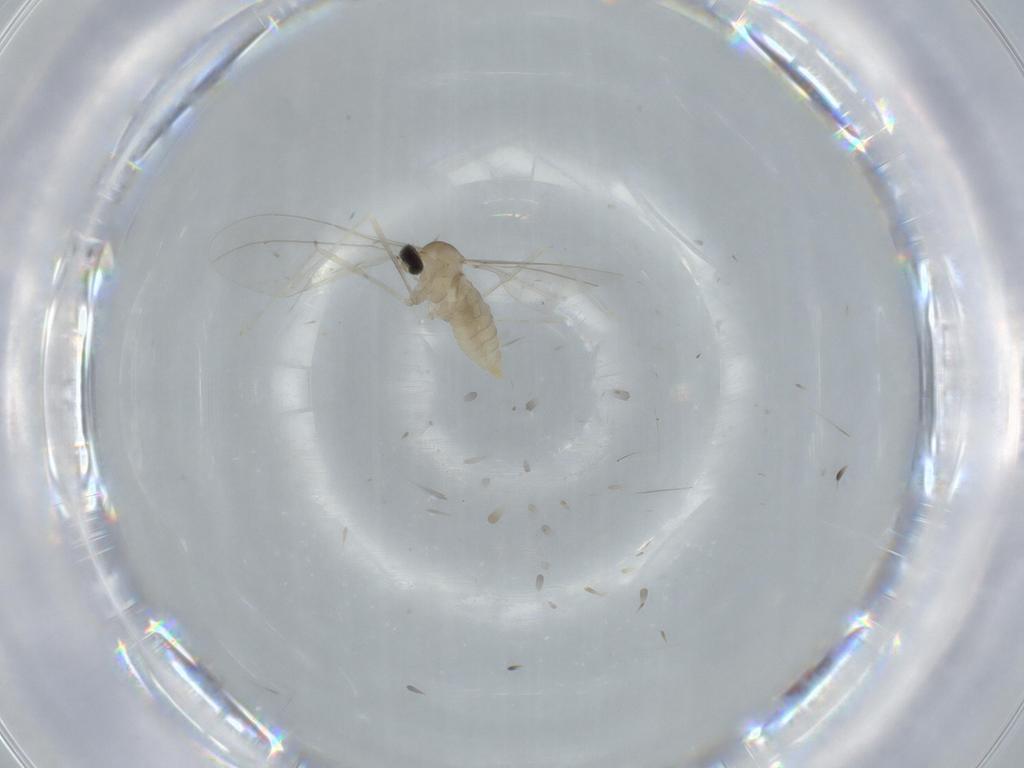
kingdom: Animalia
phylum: Arthropoda
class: Insecta
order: Diptera
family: Cecidomyiidae
